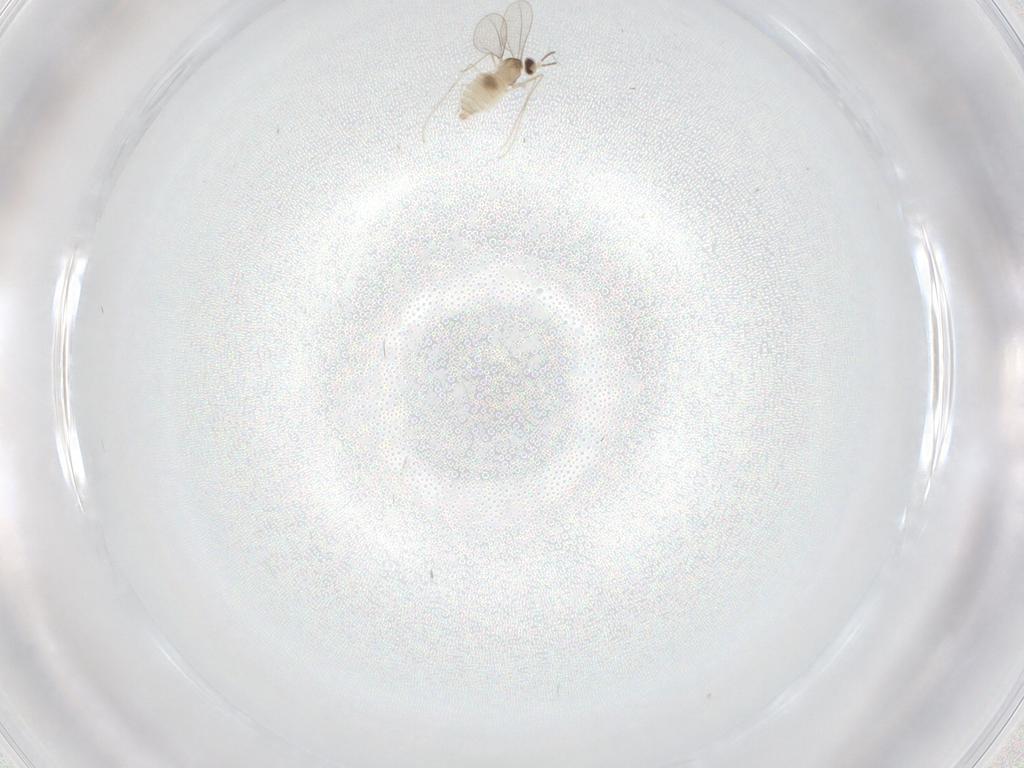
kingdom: Animalia
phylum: Arthropoda
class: Insecta
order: Diptera
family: Cecidomyiidae
